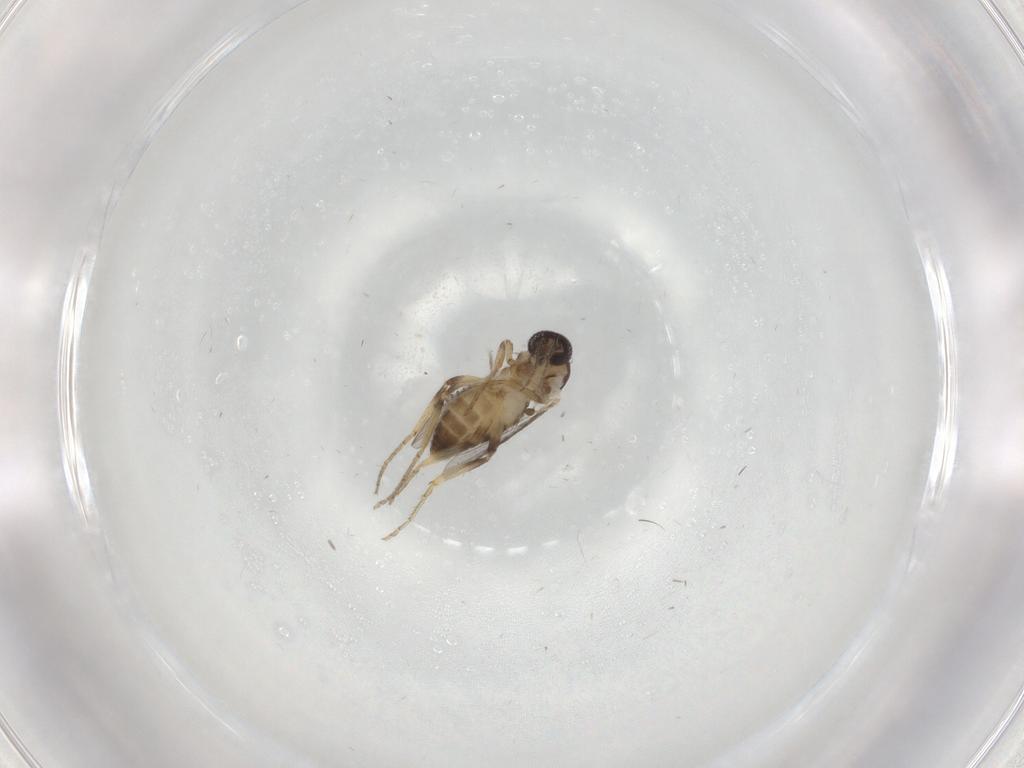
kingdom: Animalia
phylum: Arthropoda
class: Insecta
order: Diptera
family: Ceratopogonidae
